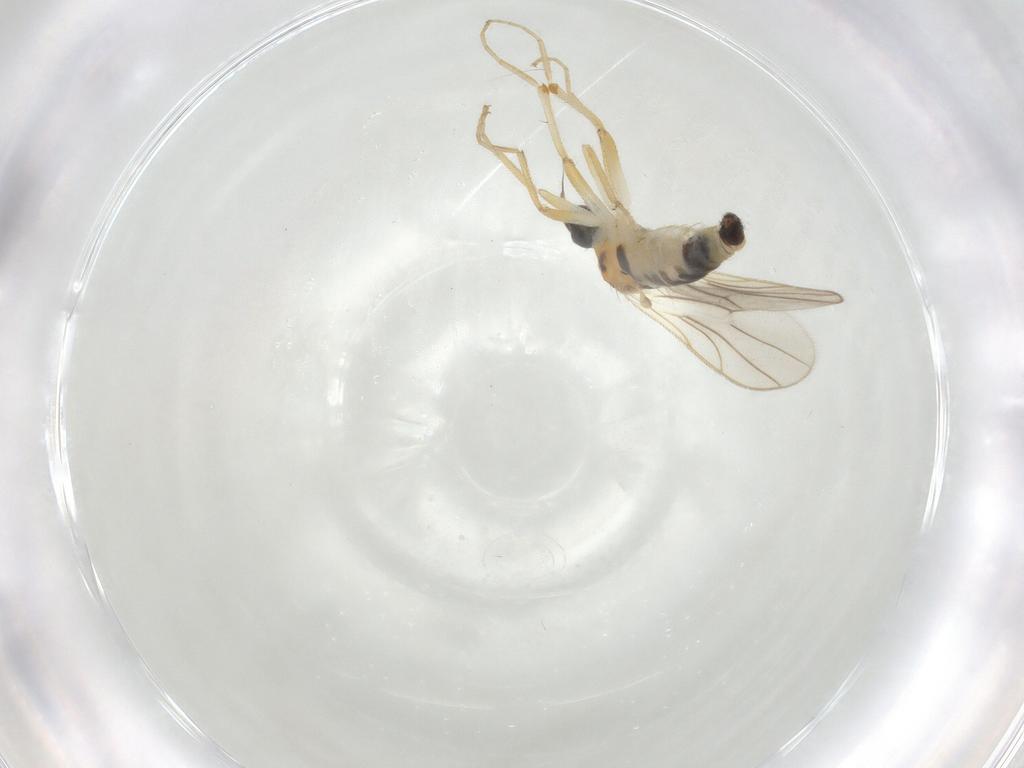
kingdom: Animalia
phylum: Arthropoda
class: Insecta
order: Diptera
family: Hybotidae
